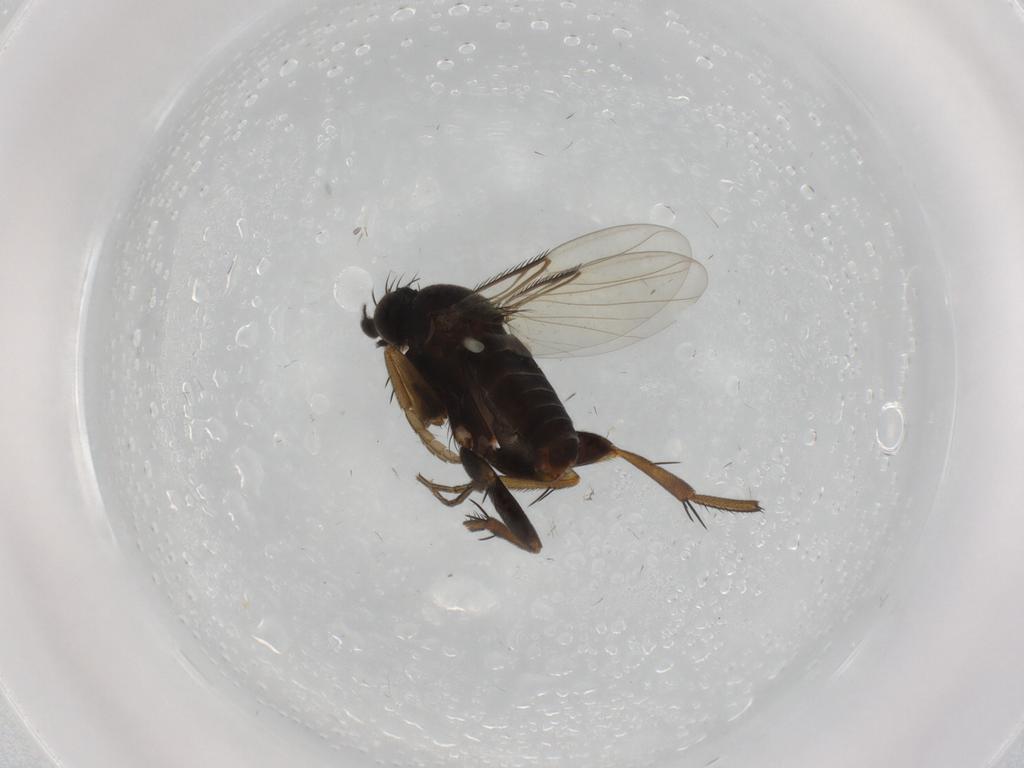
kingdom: Animalia
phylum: Arthropoda
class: Insecta
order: Diptera
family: Phoridae
